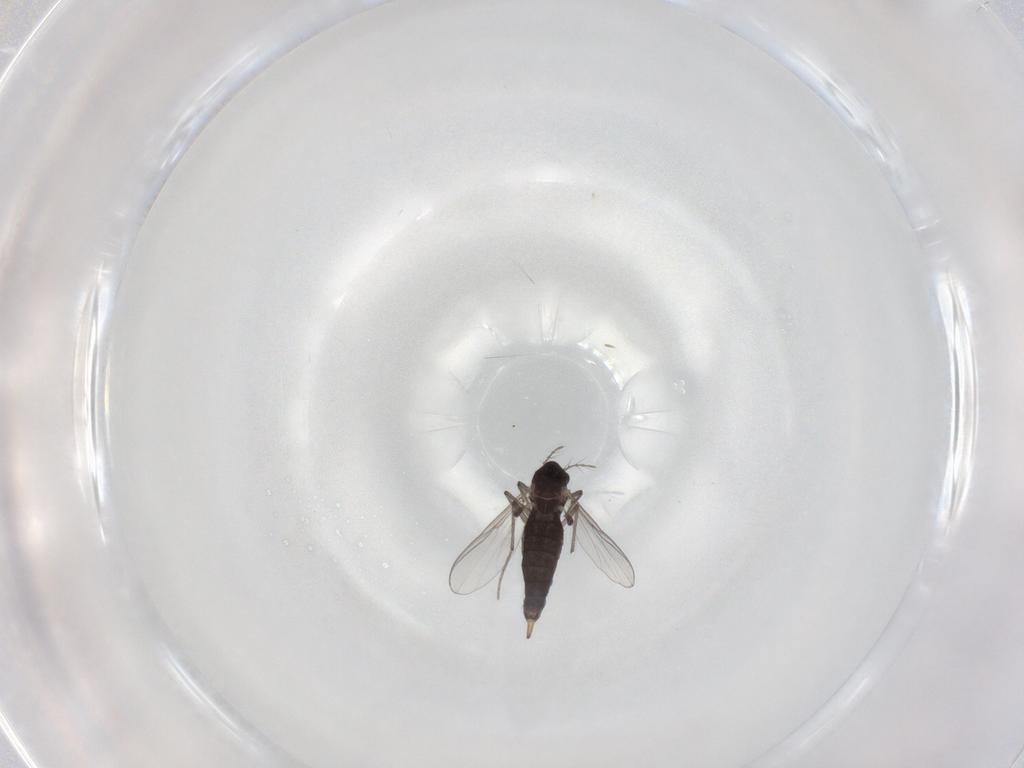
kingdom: Animalia
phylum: Arthropoda
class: Insecta
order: Diptera
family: Chironomidae
